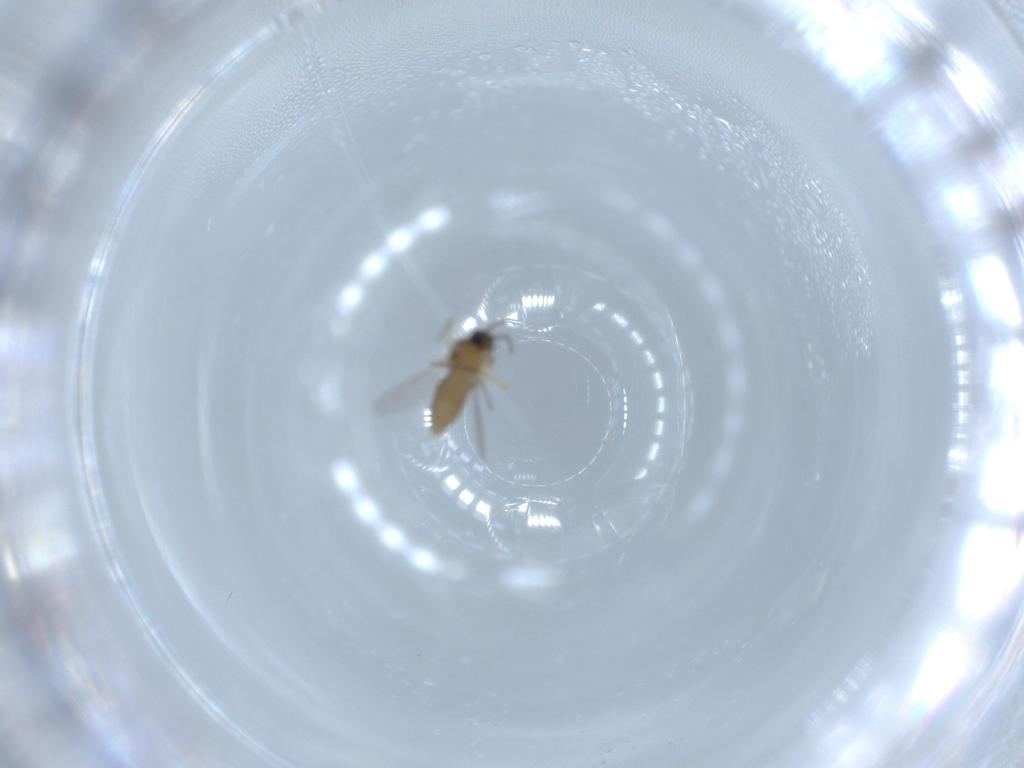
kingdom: Animalia
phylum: Arthropoda
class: Insecta
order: Diptera
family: Ceratopogonidae
